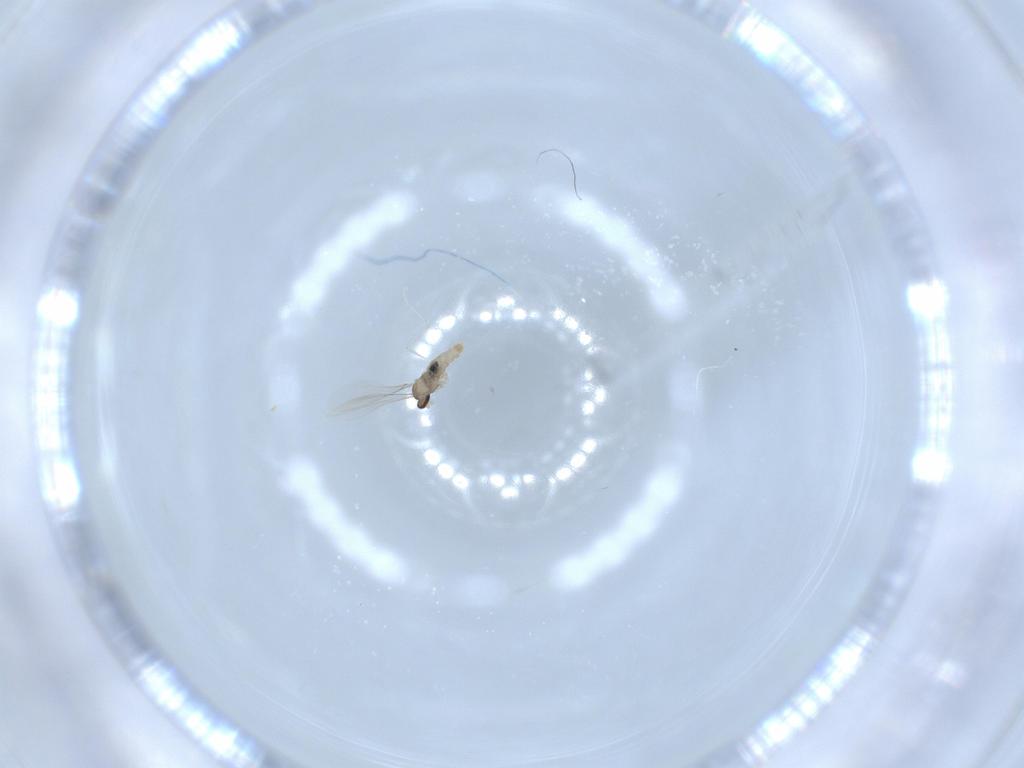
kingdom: Animalia
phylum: Arthropoda
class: Insecta
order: Diptera
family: Cecidomyiidae
